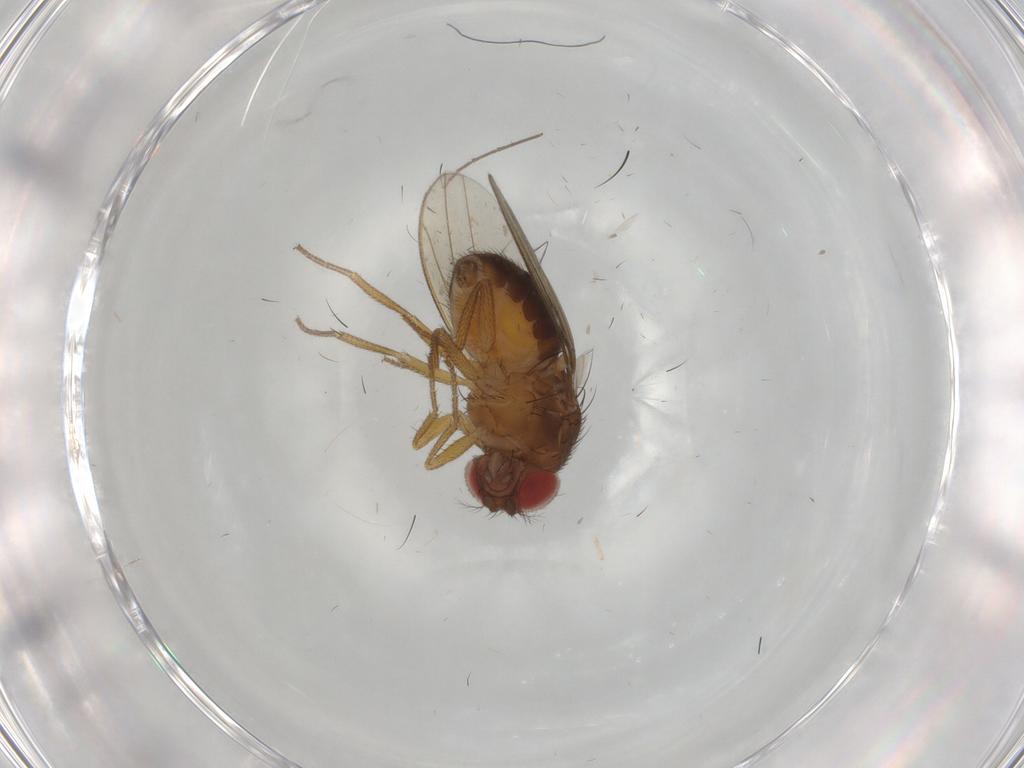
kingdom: Animalia
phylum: Arthropoda
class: Insecta
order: Diptera
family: Drosophilidae
